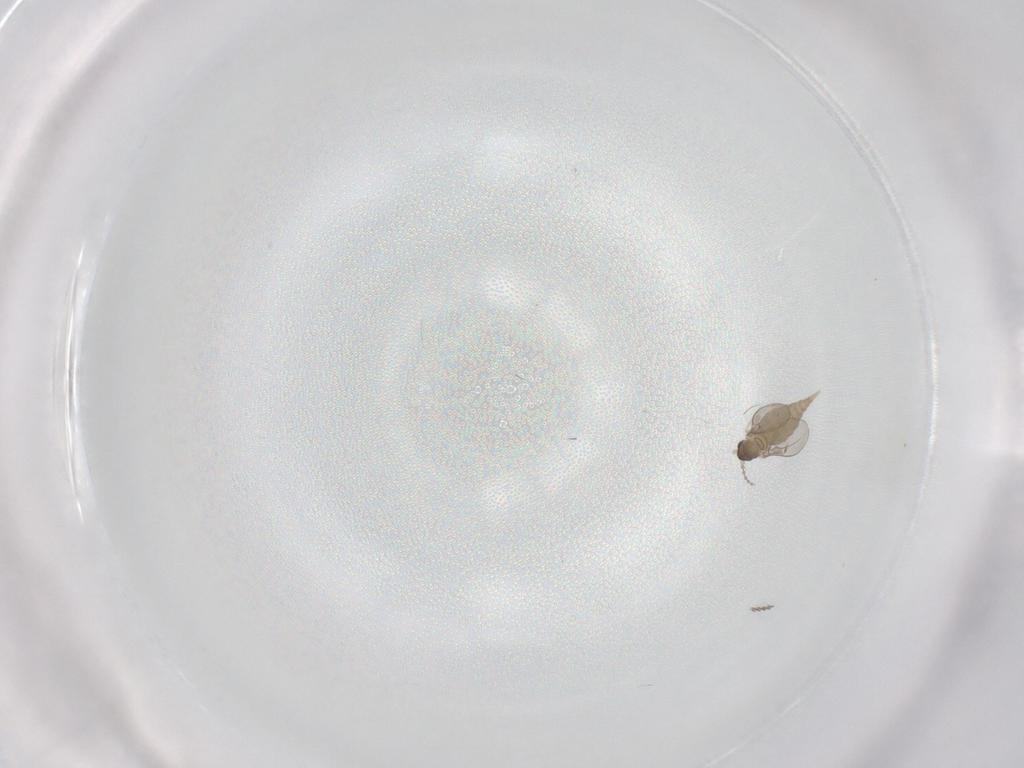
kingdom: Animalia
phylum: Arthropoda
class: Insecta
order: Diptera
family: Cecidomyiidae
